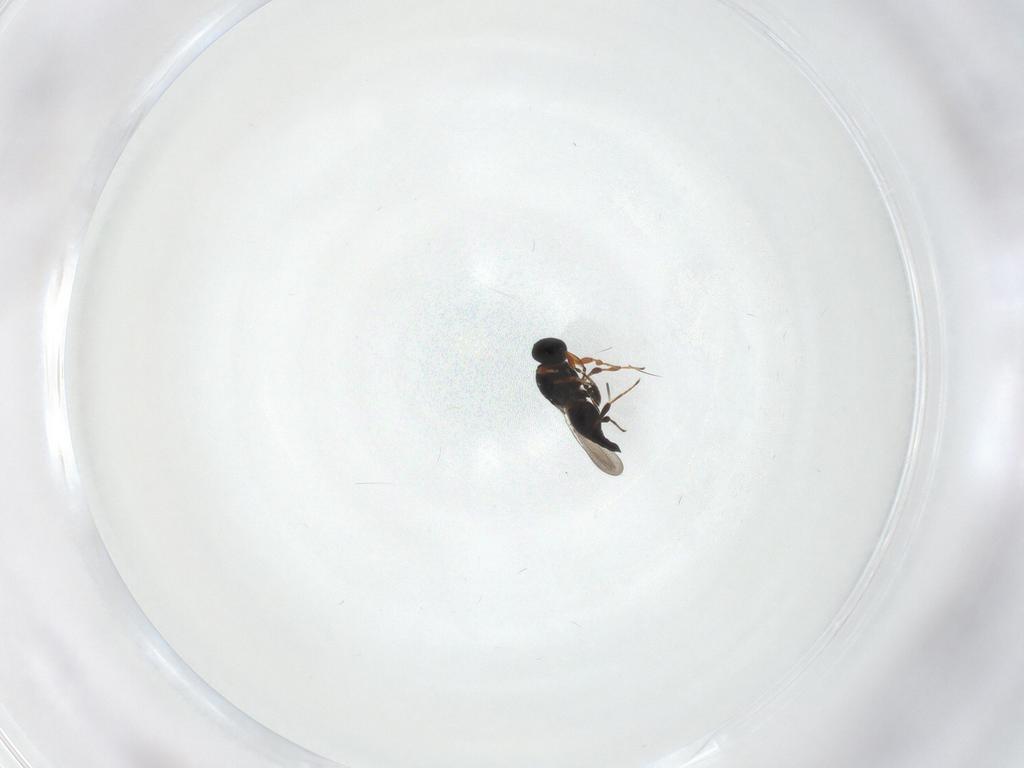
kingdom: Animalia
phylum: Arthropoda
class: Insecta
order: Hymenoptera
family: Platygastridae
